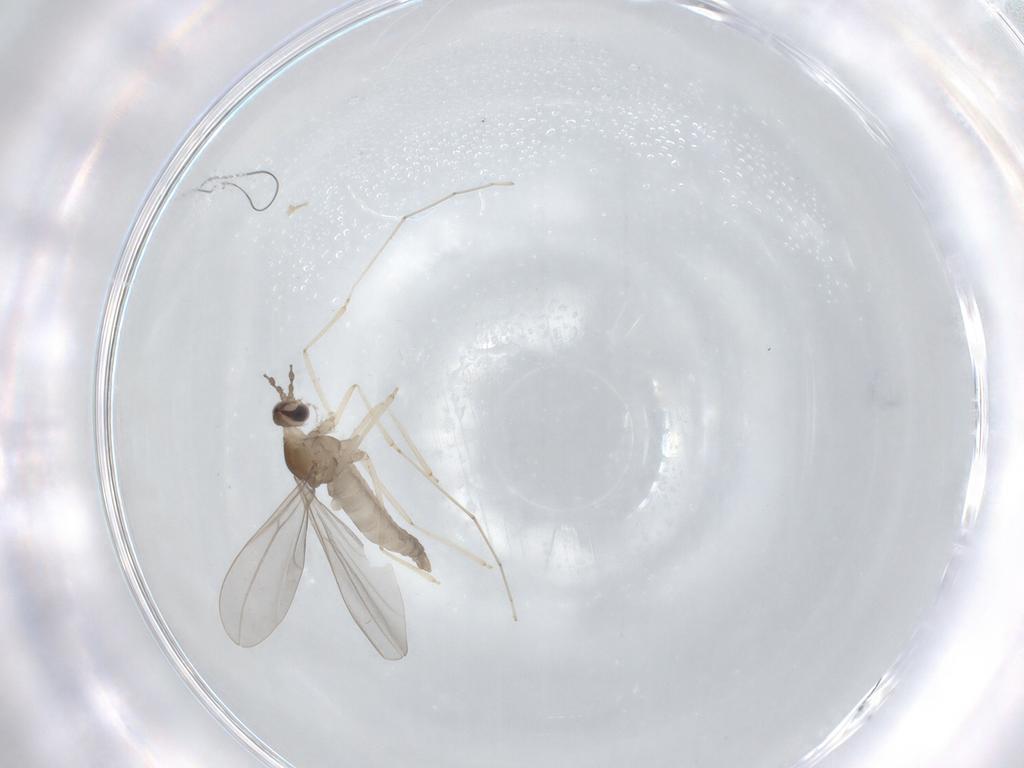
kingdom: Animalia
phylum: Arthropoda
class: Insecta
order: Diptera
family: Cecidomyiidae
